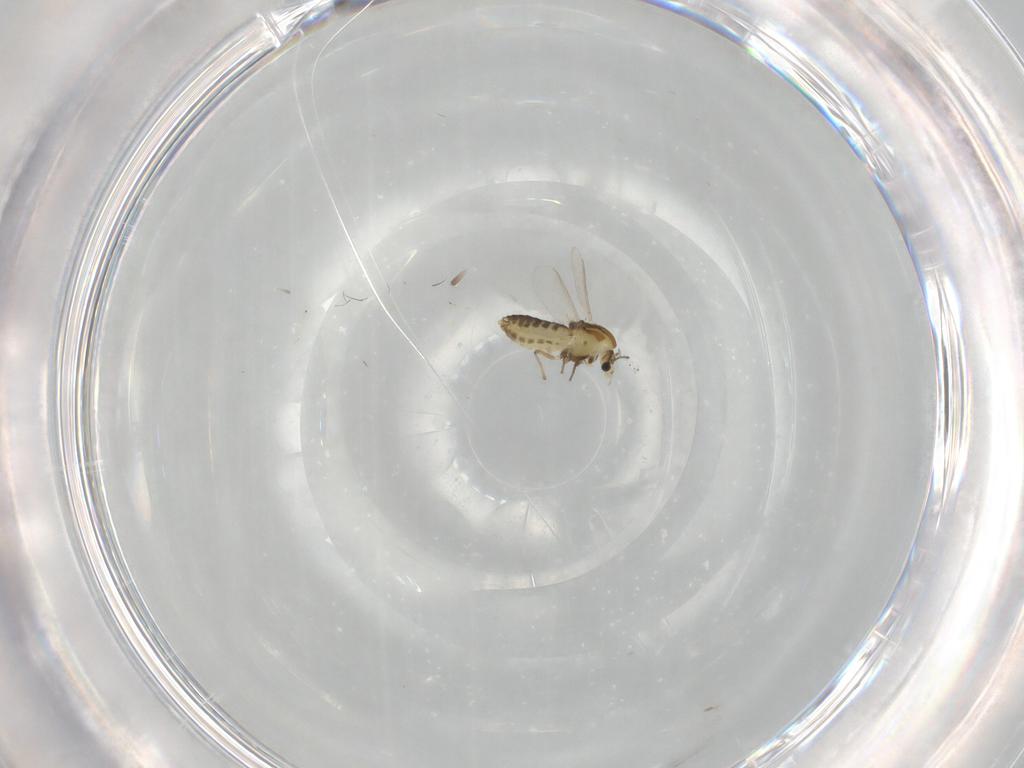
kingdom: Animalia
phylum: Arthropoda
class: Insecta
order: Diptera
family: Chironomidae
